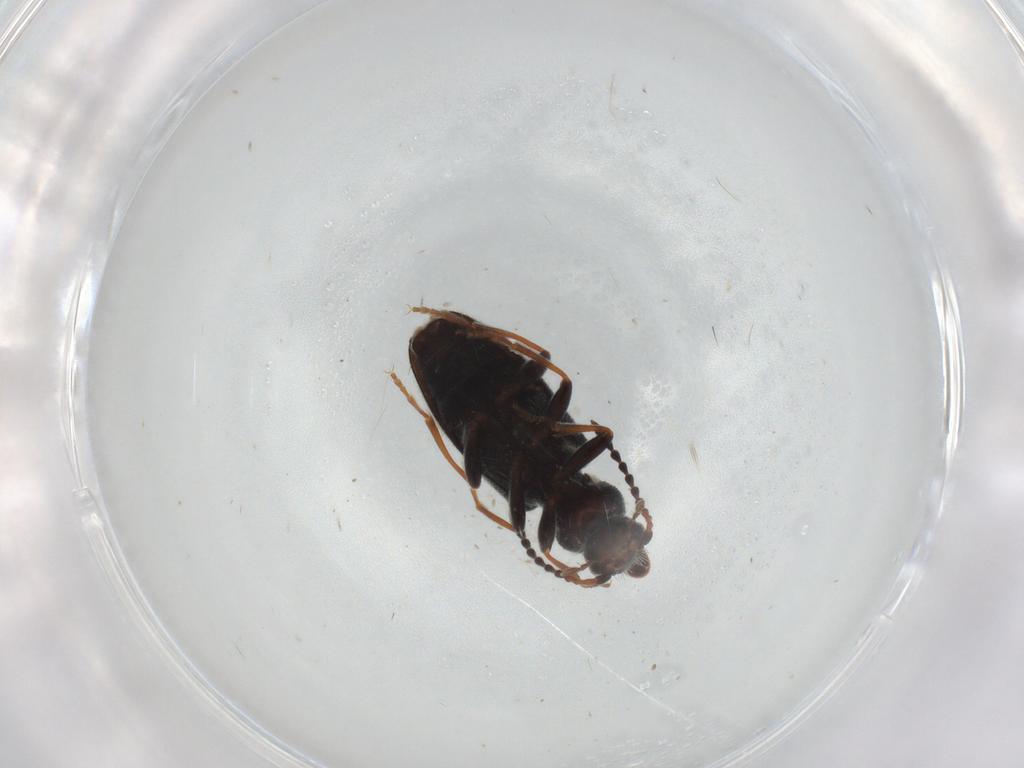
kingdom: Animalia
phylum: Arthropoda
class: Insecta
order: Coleoptera
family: Anthicidae
